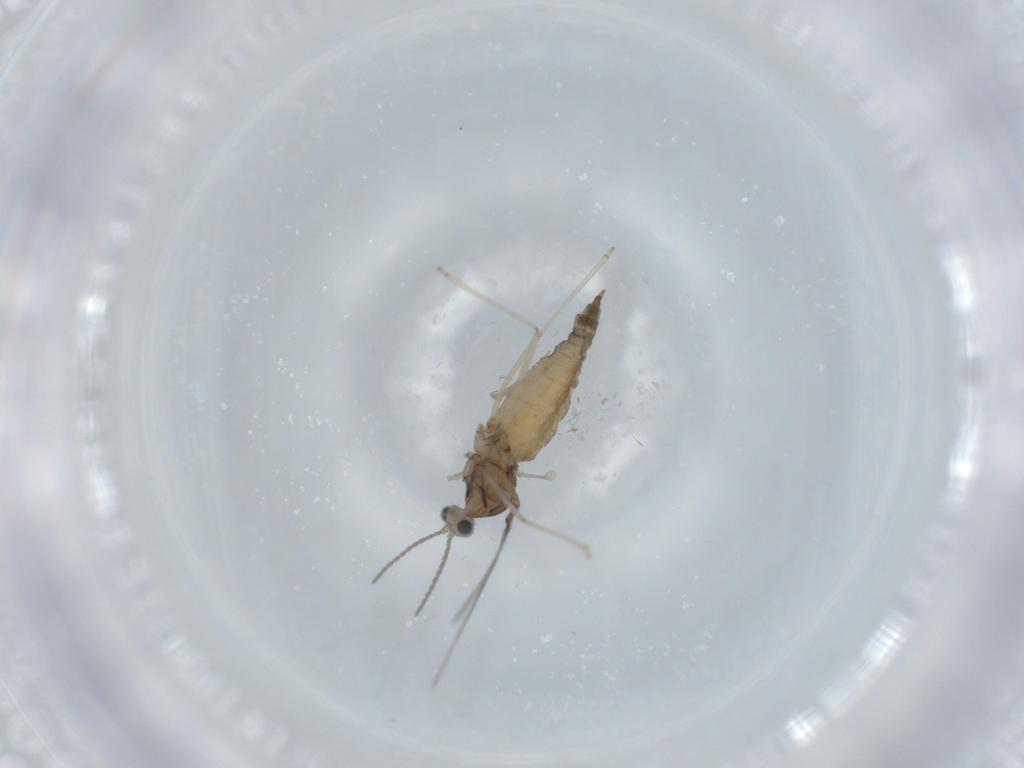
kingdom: Animalia
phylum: Arthropoda
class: Insecta
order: Diptera
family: Cecidomyiidae
